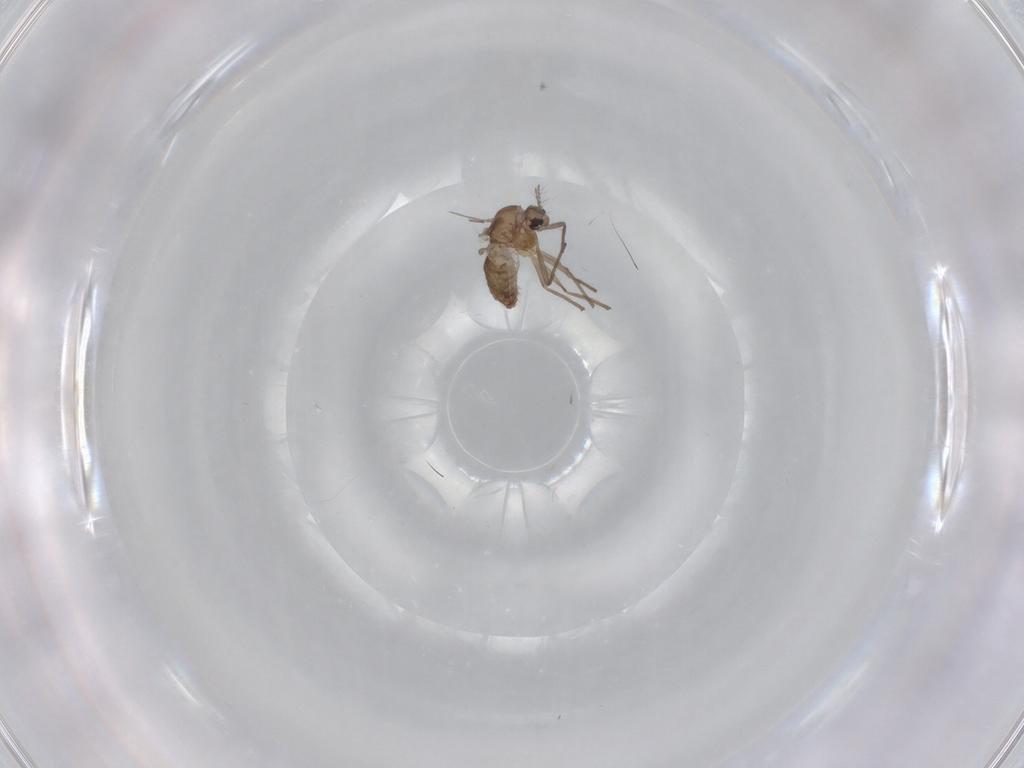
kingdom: Animalia
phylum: Arthropoda
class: Insecta
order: Diptera
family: Chironomidae
